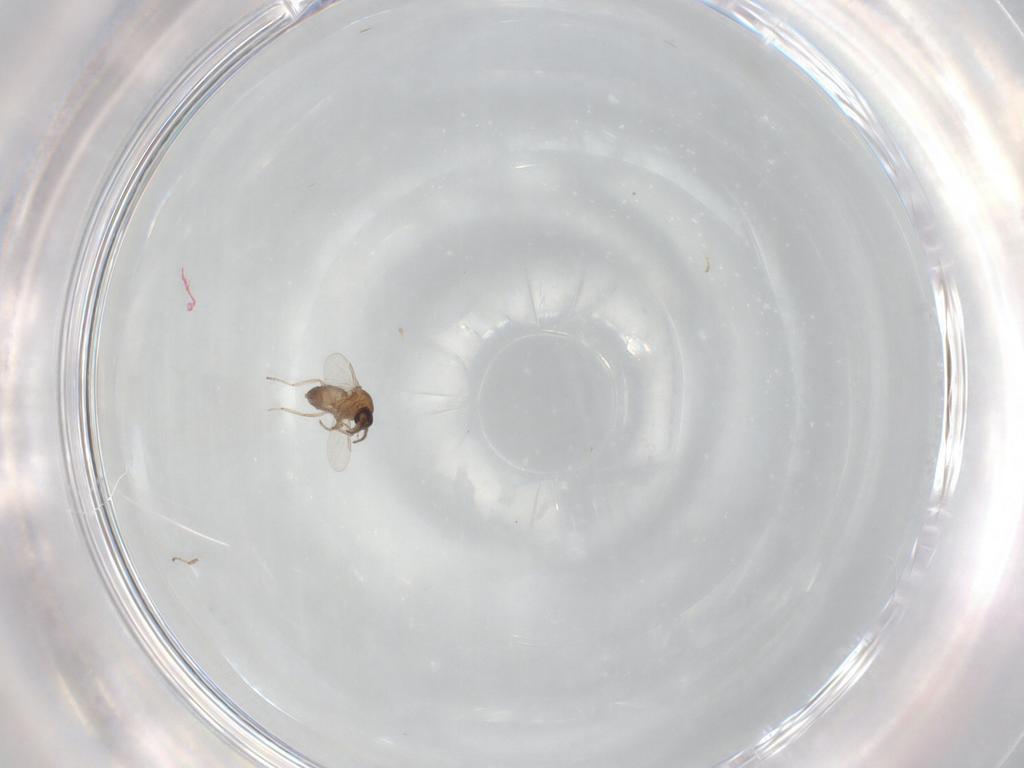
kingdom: Animalia
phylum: Arthropoda
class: Insecta
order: Diptera
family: Ceratopogonidae
